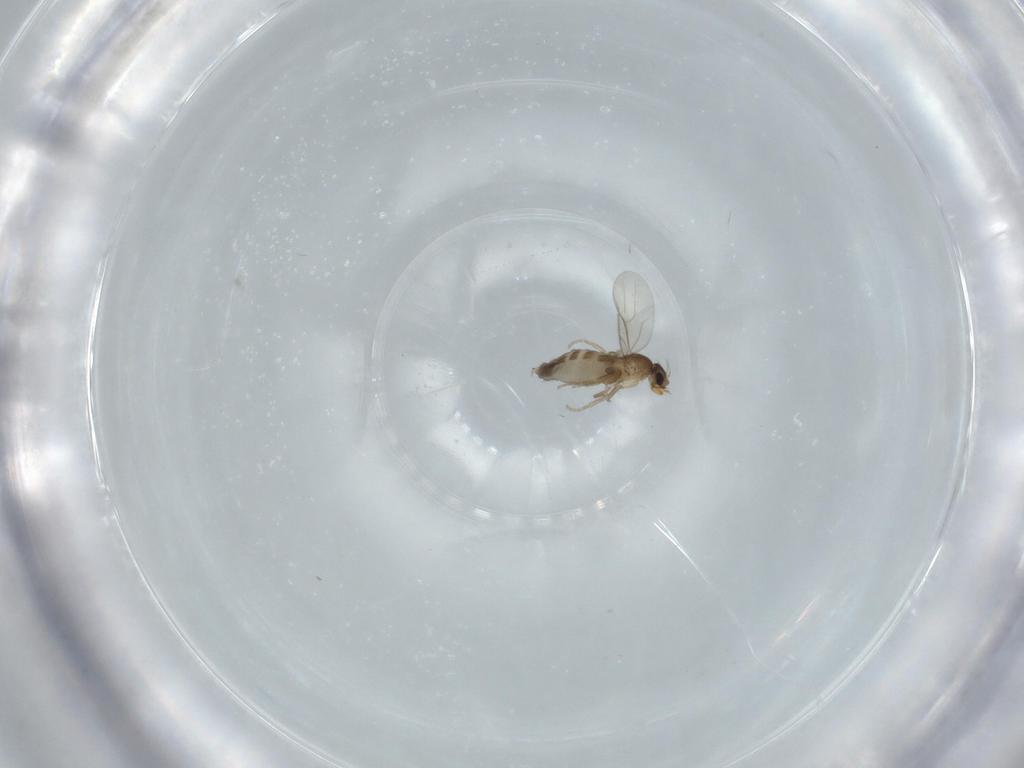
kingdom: Animalia
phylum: Arthropoda
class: Insecta
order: Diptera
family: Phoridae
